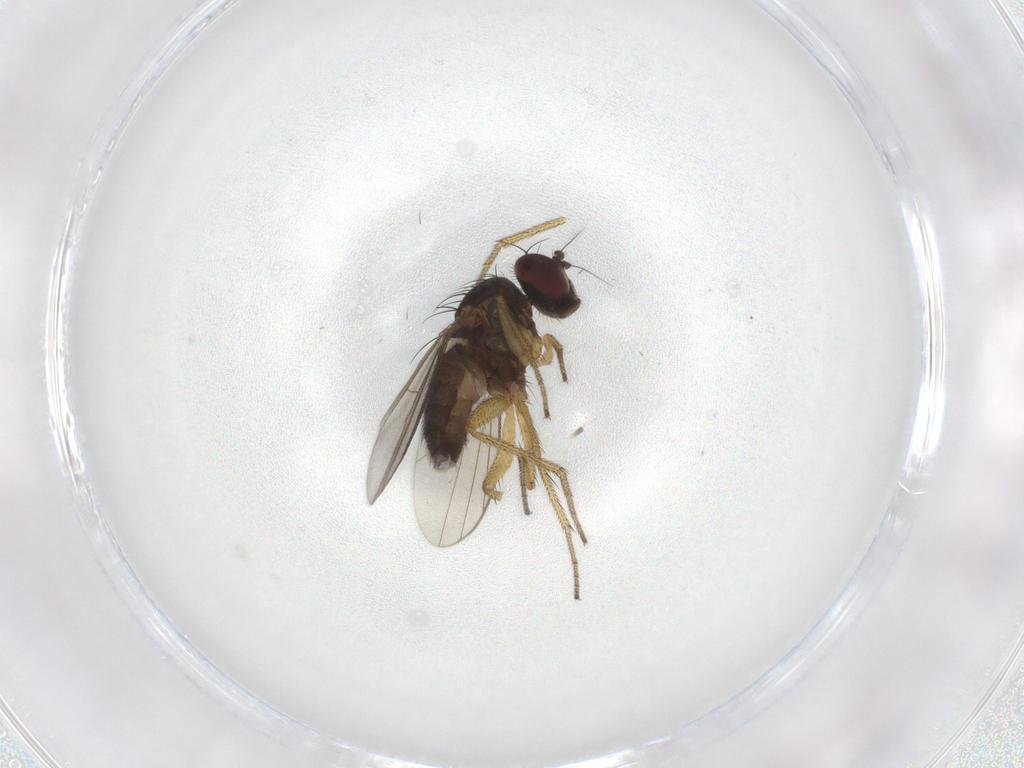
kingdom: Animalia
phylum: Arthropoda
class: Insecta
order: Diptera
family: Dolichopodidae
